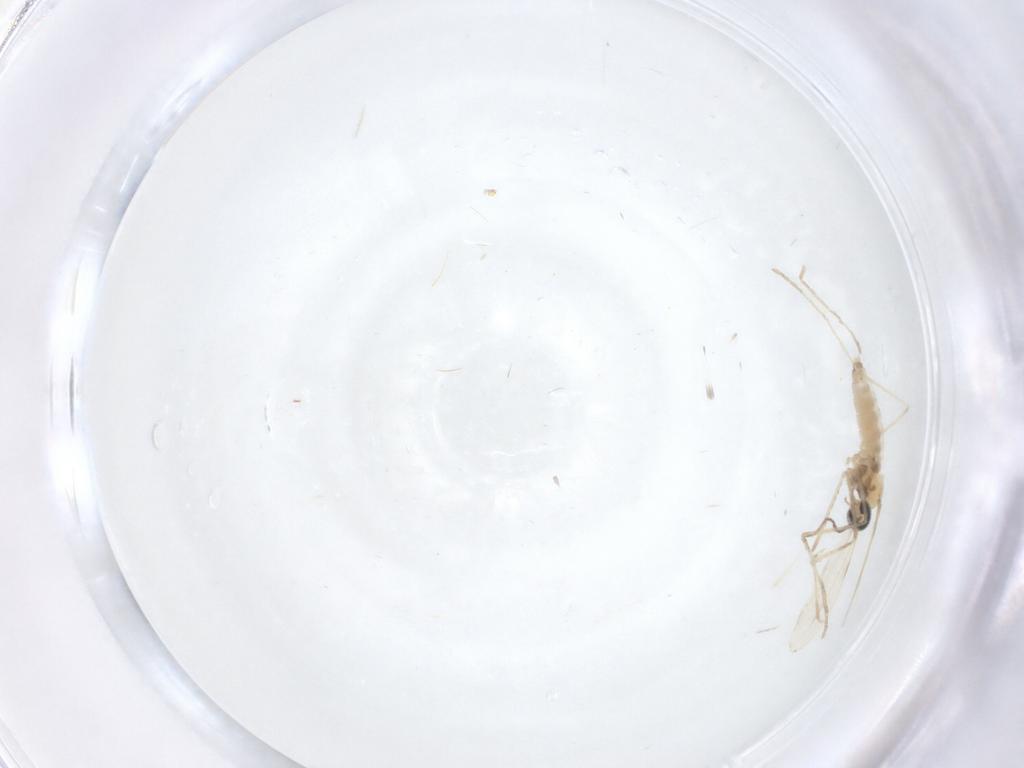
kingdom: Animalia
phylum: Arthropoda
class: Insecta
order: Diptera
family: Cecidomyiidae
